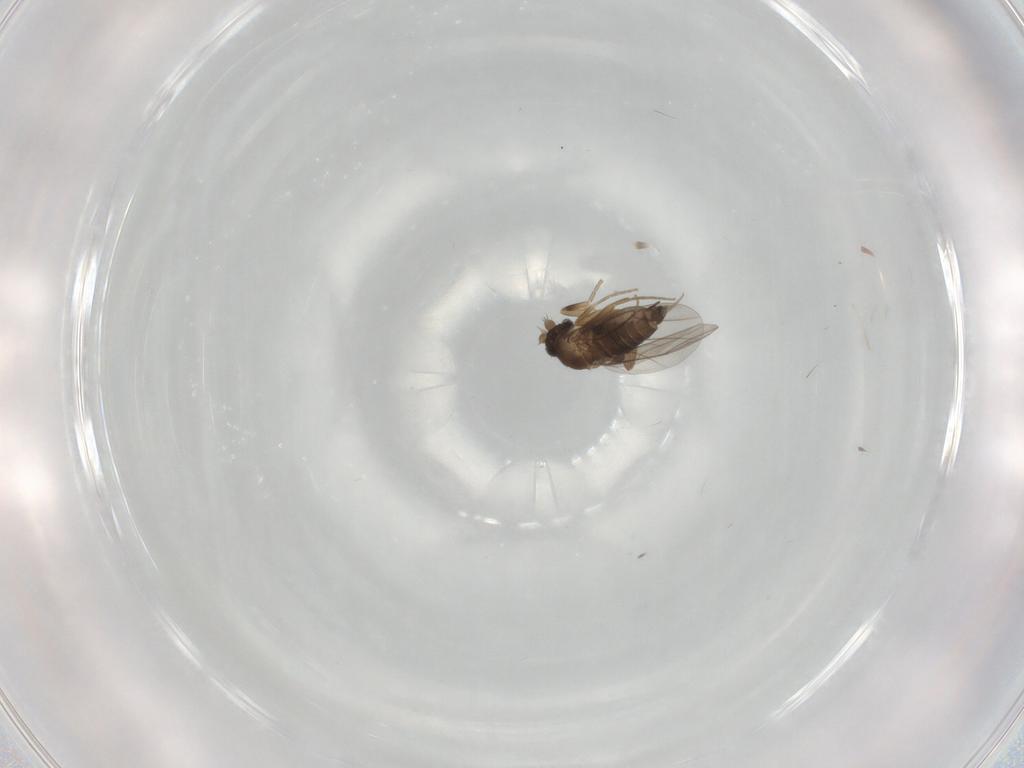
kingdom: Animalia
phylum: Arthropoda
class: Insecta
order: Diptera
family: Phoridae
